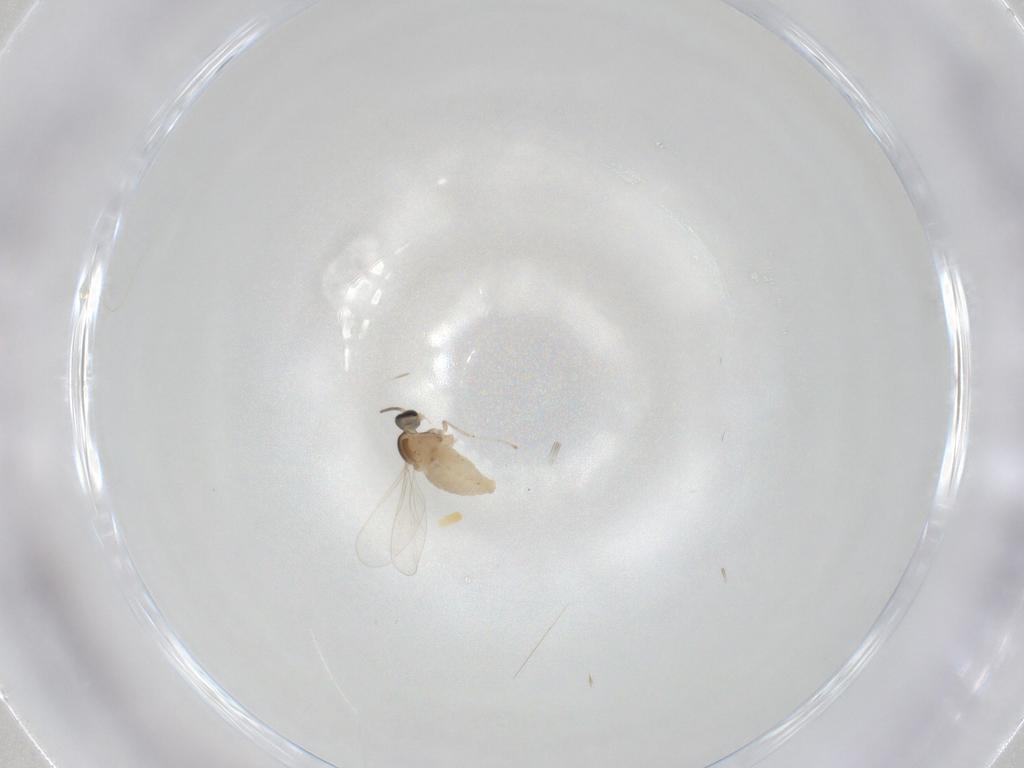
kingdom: Animalia
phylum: Arthropoda
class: Insecta
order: Diptera
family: Cecidomyiidae
